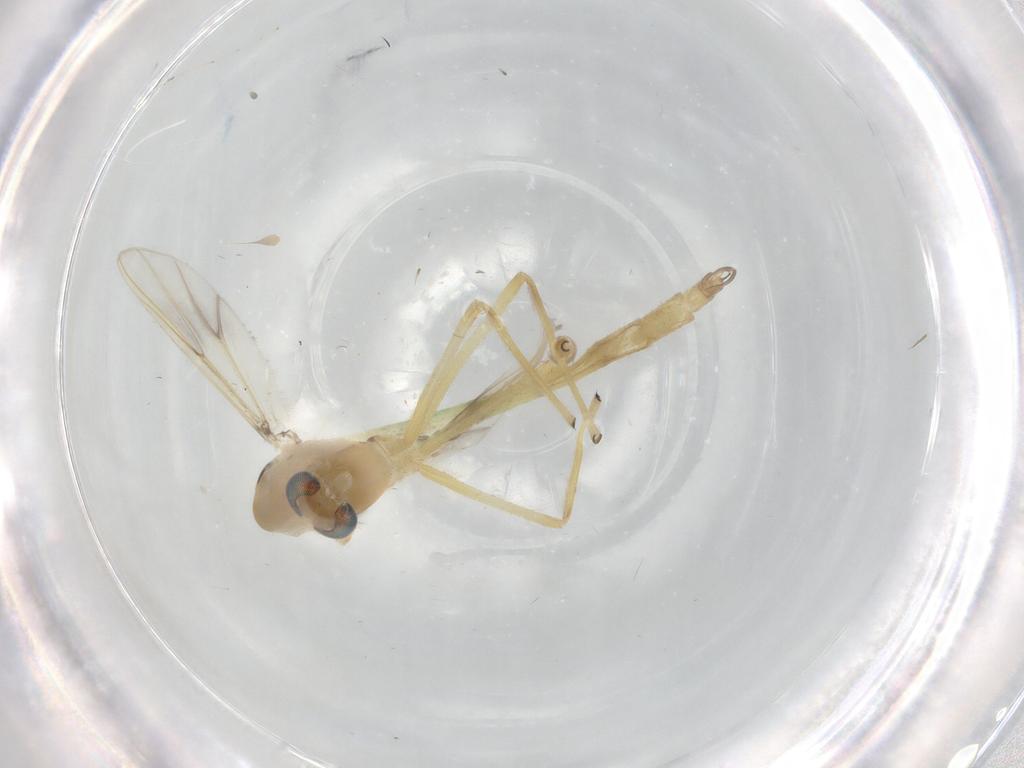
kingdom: Animalia
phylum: Arthropoda
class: Insecta
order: Diptera
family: Chironomidae
